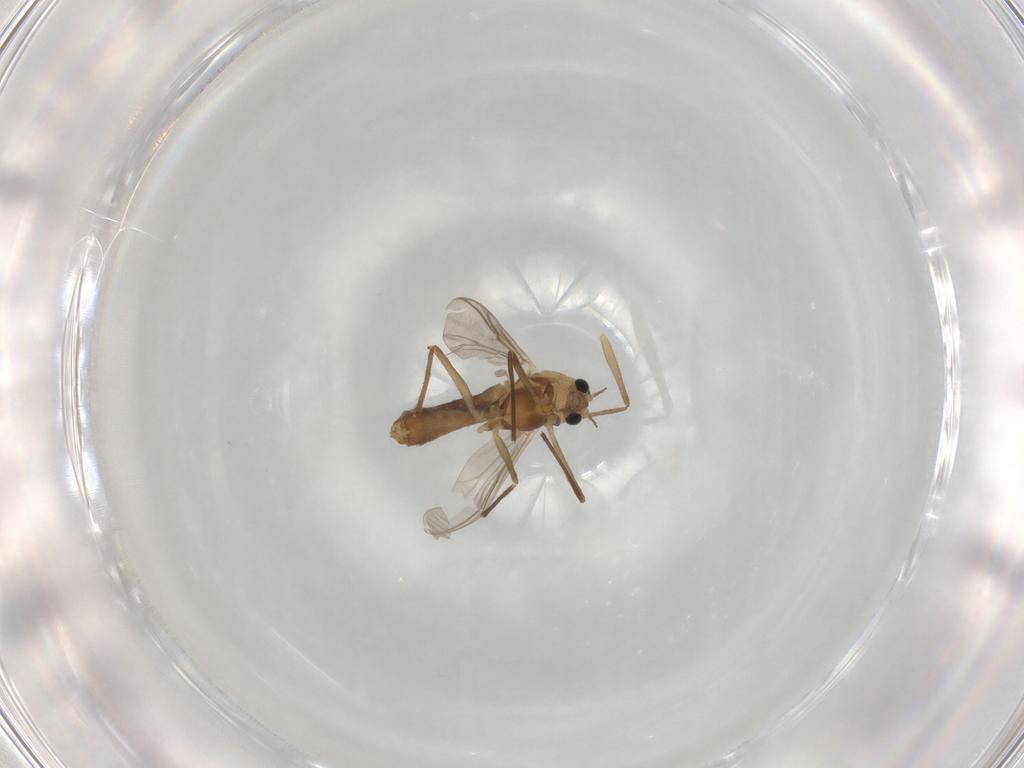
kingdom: Animalia
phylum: Arthropoda
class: Insecta
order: Diptera
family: Chironomidae
